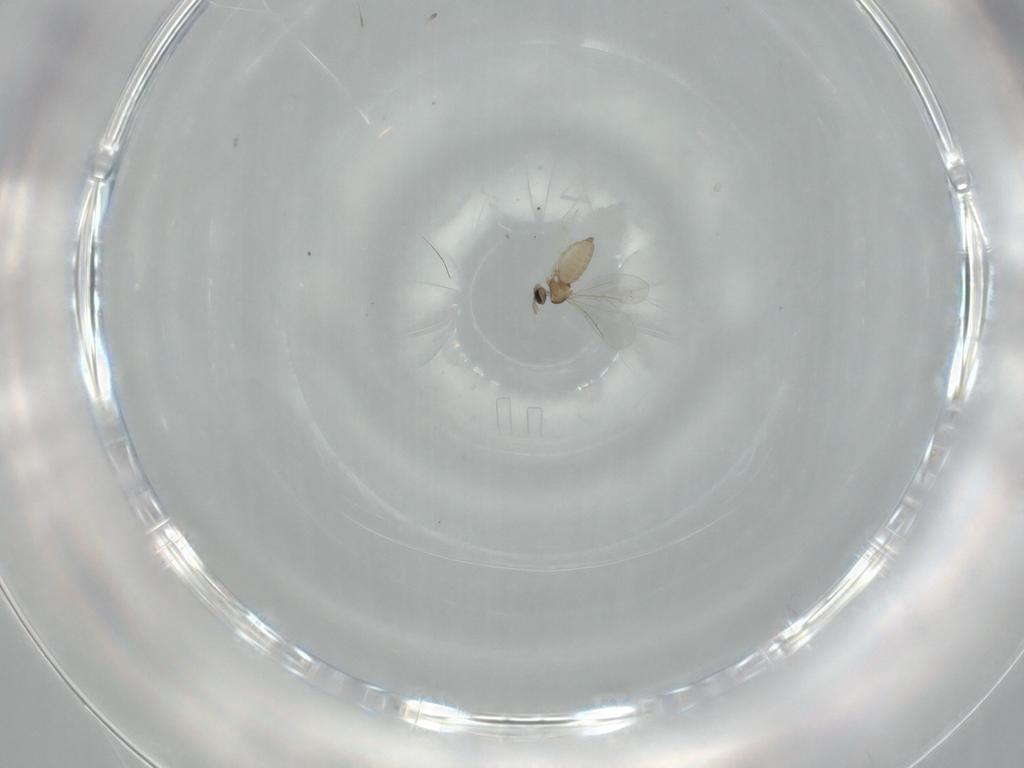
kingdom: Animalia
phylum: Arthropoda
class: Insecta
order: Diptera
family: Cecidomyiidae
